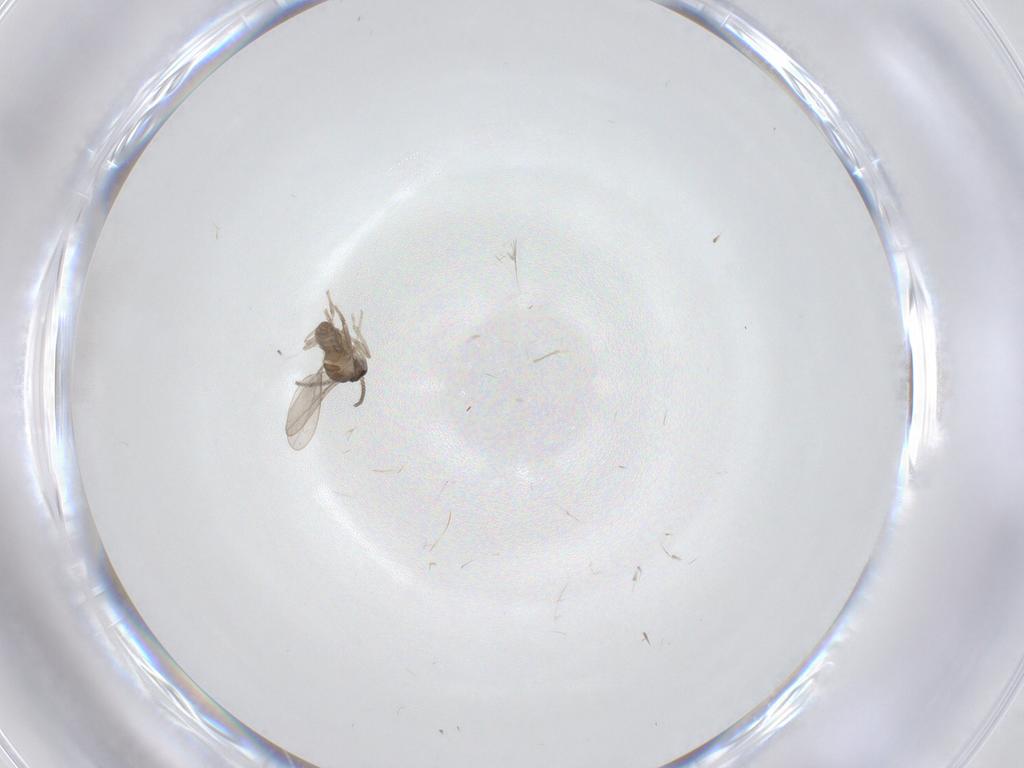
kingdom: Animalia
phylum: Arthropoda
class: Insecta
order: Diptera
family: Cecidomyiidae
